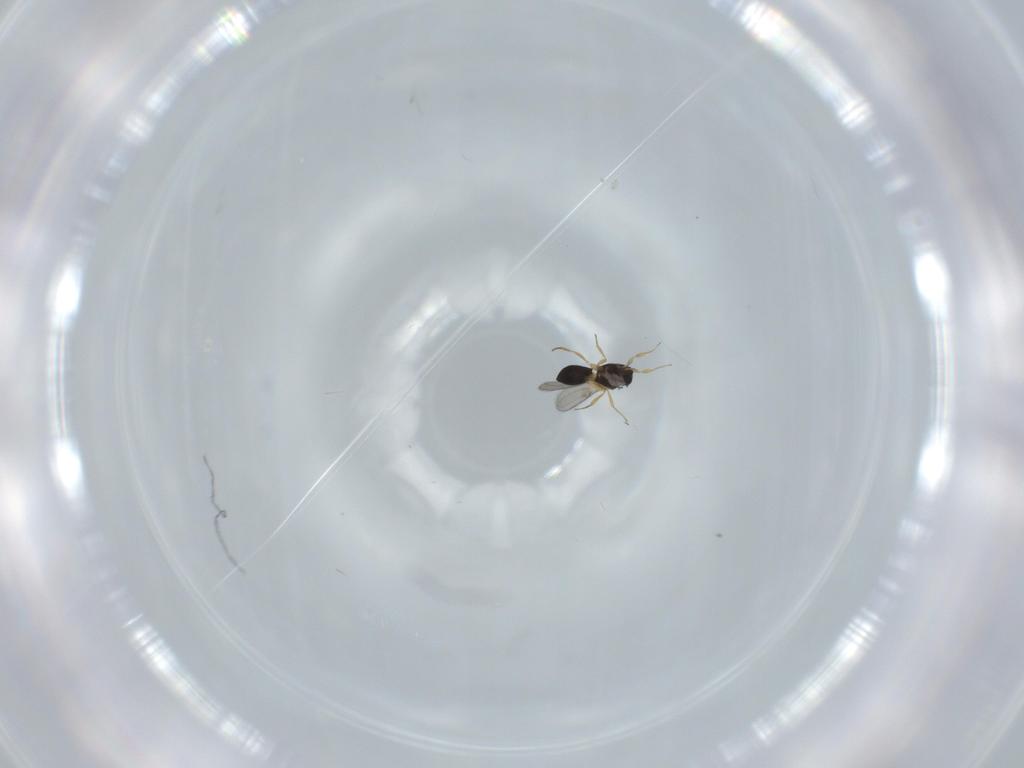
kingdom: Animalia
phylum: Arthropoda
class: Insecta
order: Hymenoptera
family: Scelionidae
